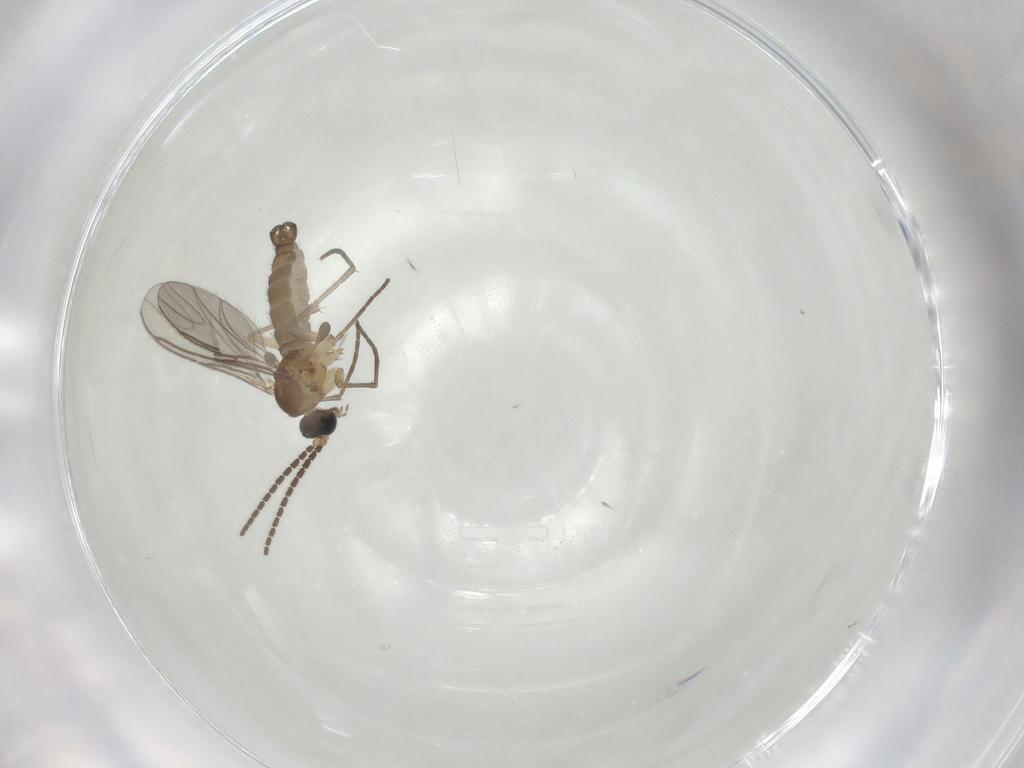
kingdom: Animalia
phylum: Arthropoda
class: Insecta
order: Diptera
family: Sciaridae
